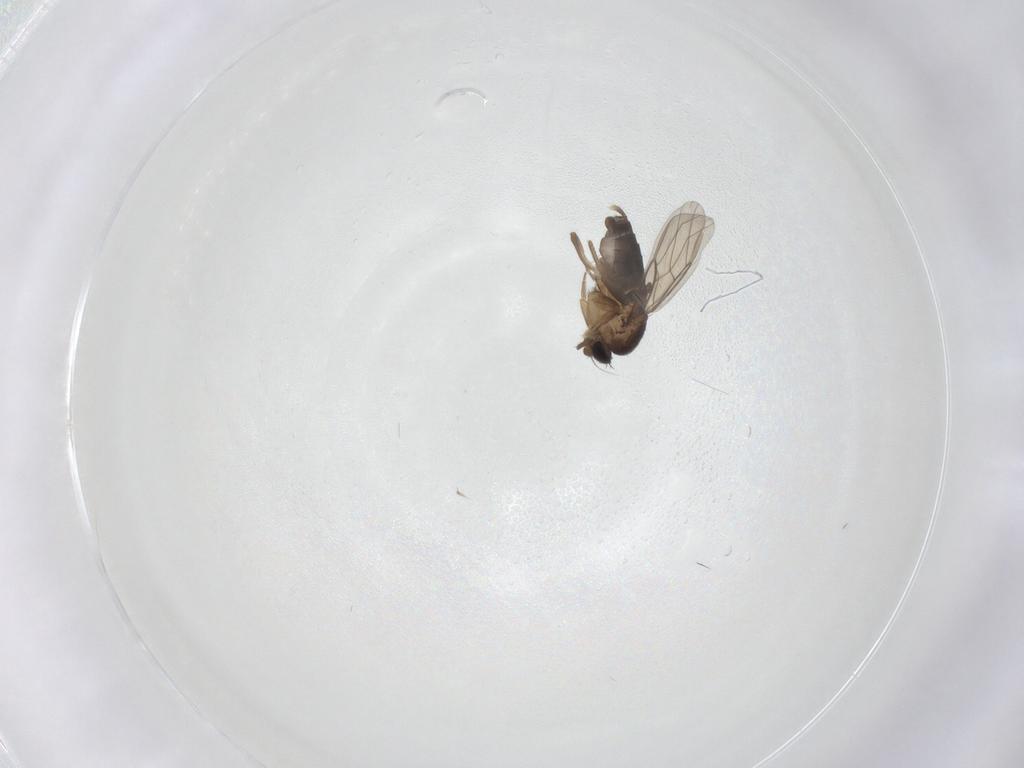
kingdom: Animalia
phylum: Arthropoda
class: Insecta
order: Diptera
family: Phoridae
